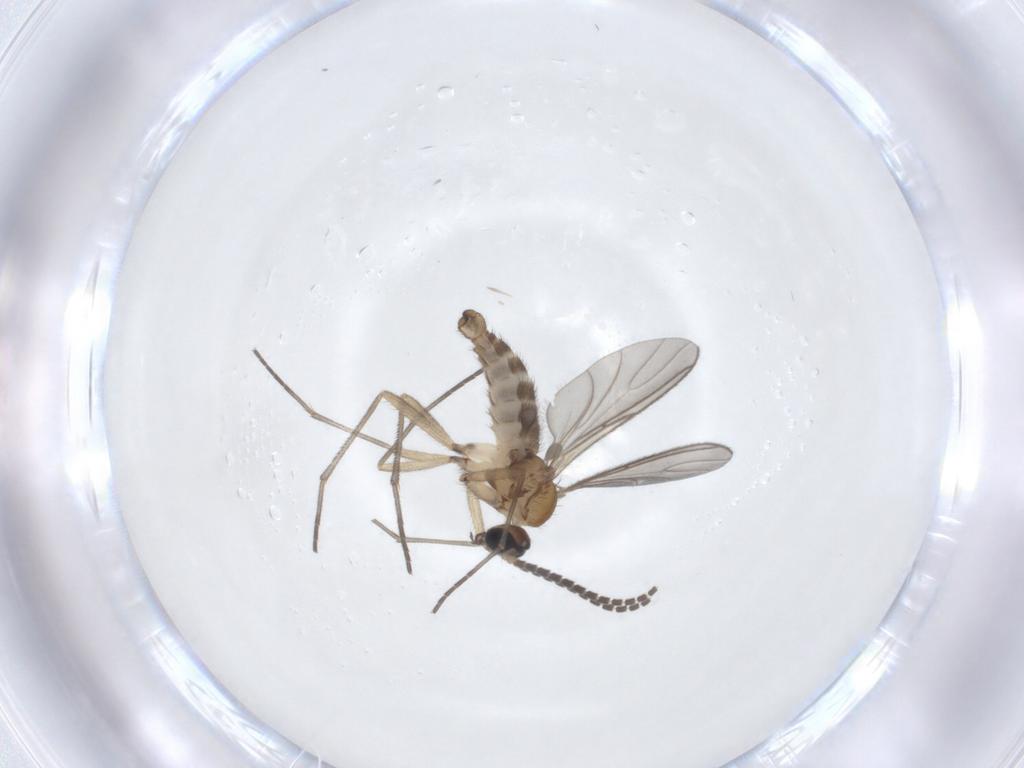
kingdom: Animalia
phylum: Arthropoda
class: Insecta
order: Diptera
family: Sciaridae
